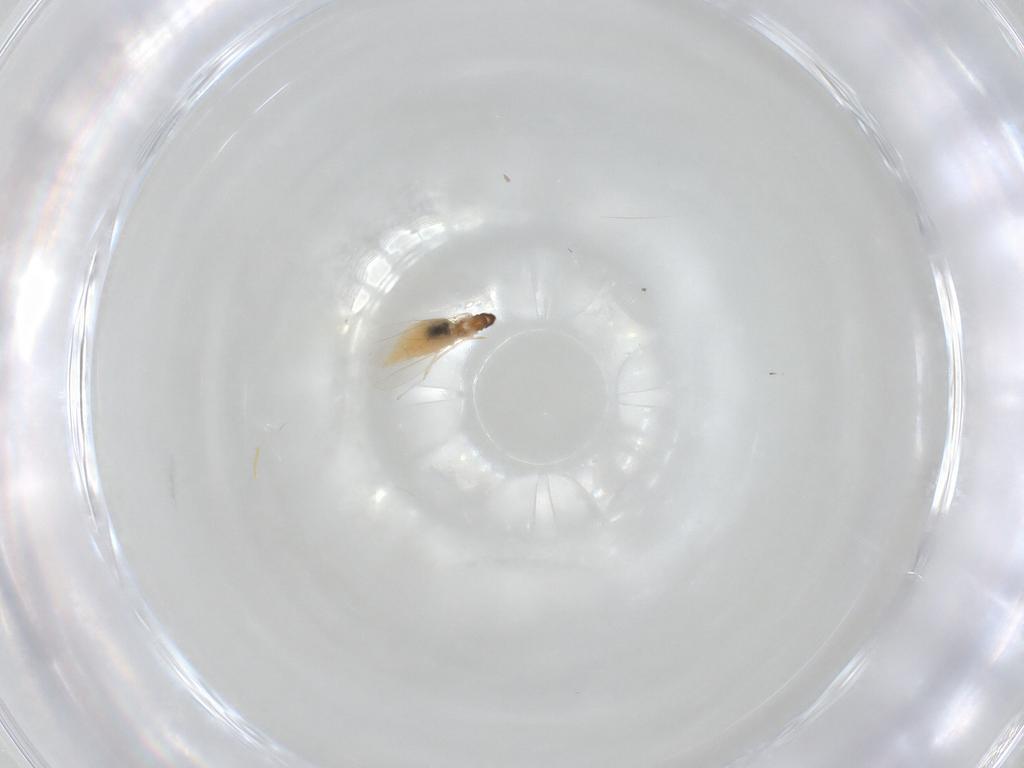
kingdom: Animalia
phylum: Arthropoda
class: Insecta
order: Diptera
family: Cecidomyiidae
